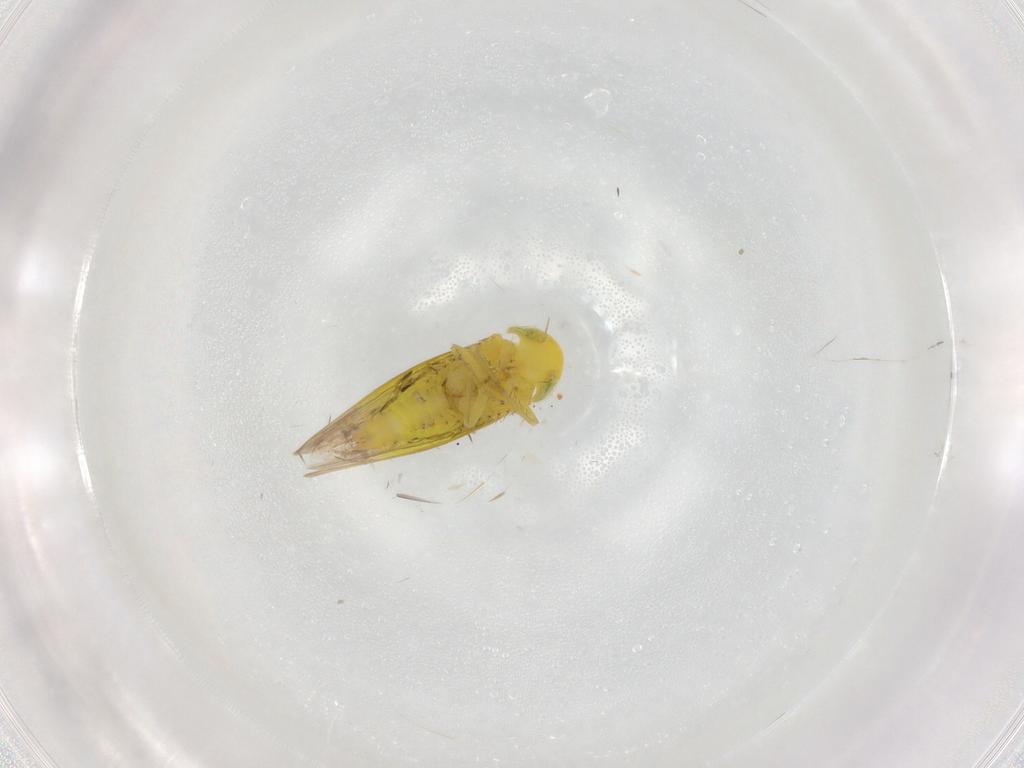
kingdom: Animalia
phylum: Arthropoda
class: Insecta
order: Hemiptera
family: Cicadellidae
